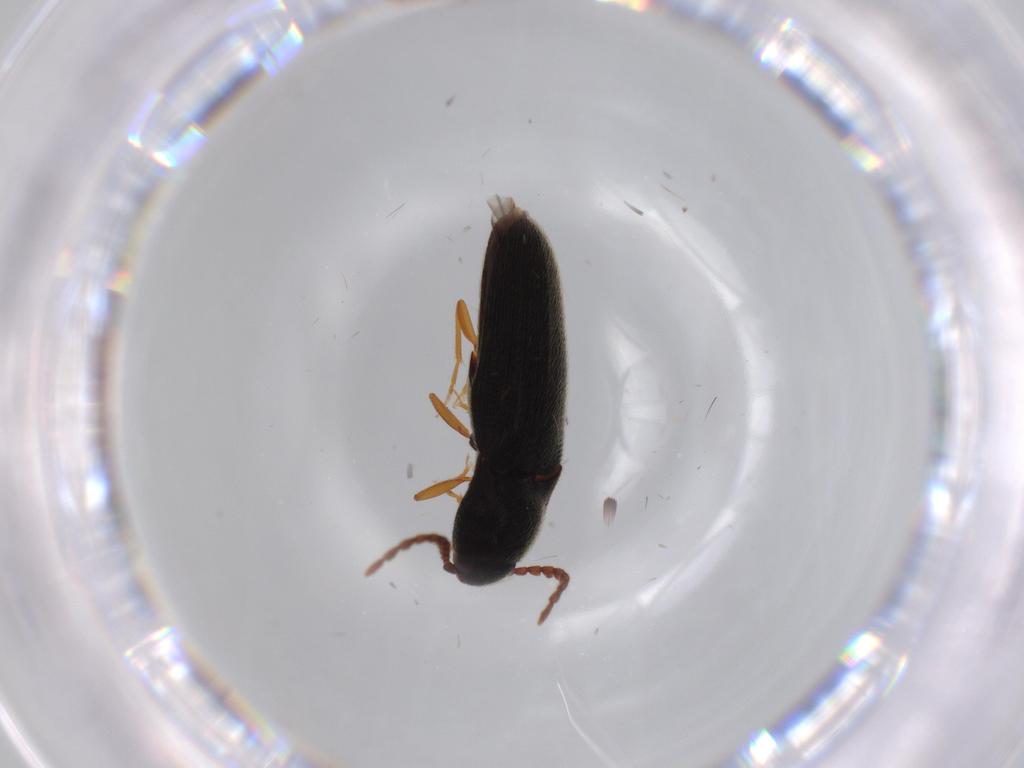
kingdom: Animalia
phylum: Arthropoda
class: Insecta
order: Coleoptera
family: Elateridae
